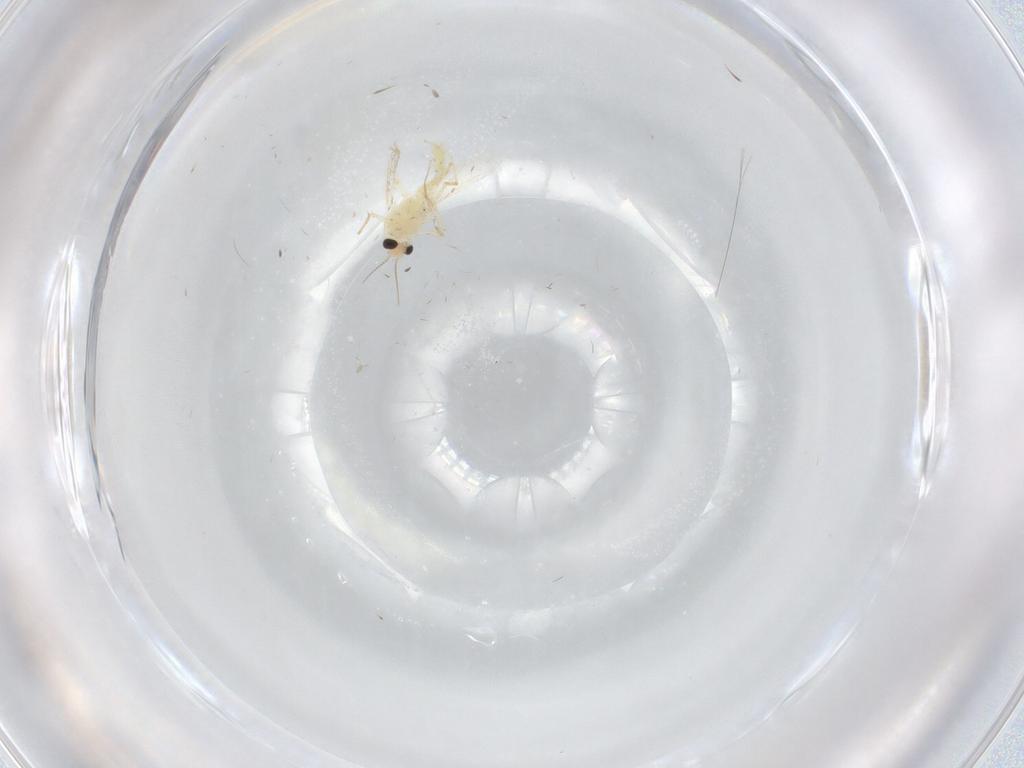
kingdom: Animalia
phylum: Arthropoda
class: Insecta
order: Diptera
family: Chironomidae
